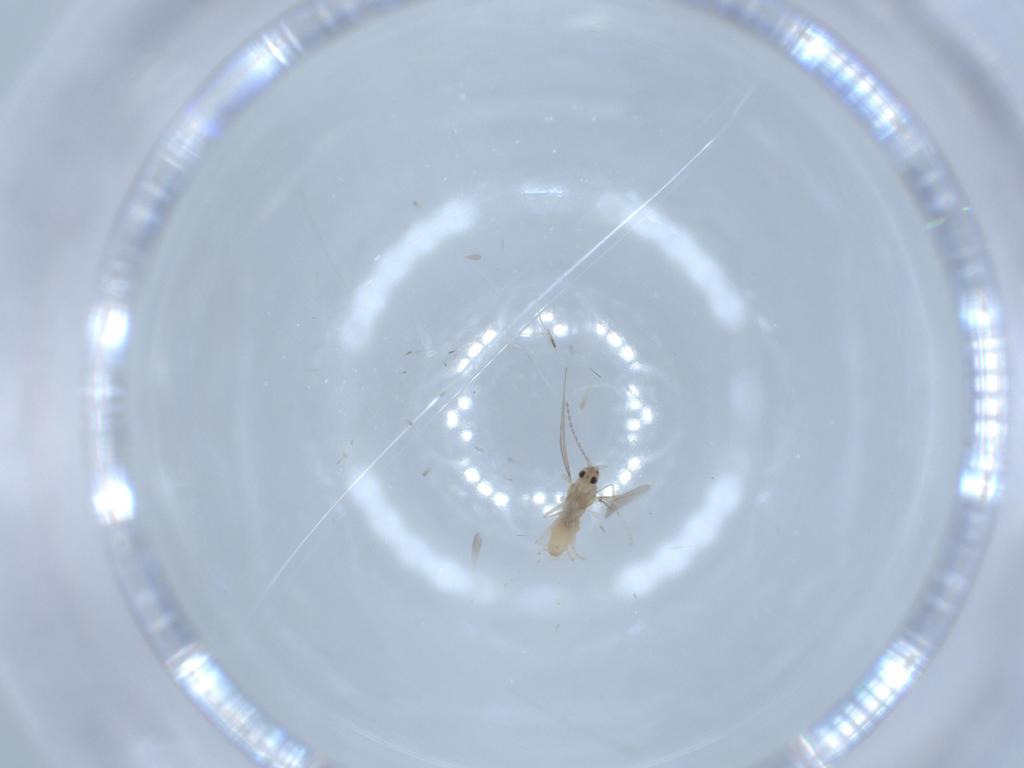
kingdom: Animalia
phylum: Arthropoda
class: Insecta
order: Diptera
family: Cecidomyiidae
